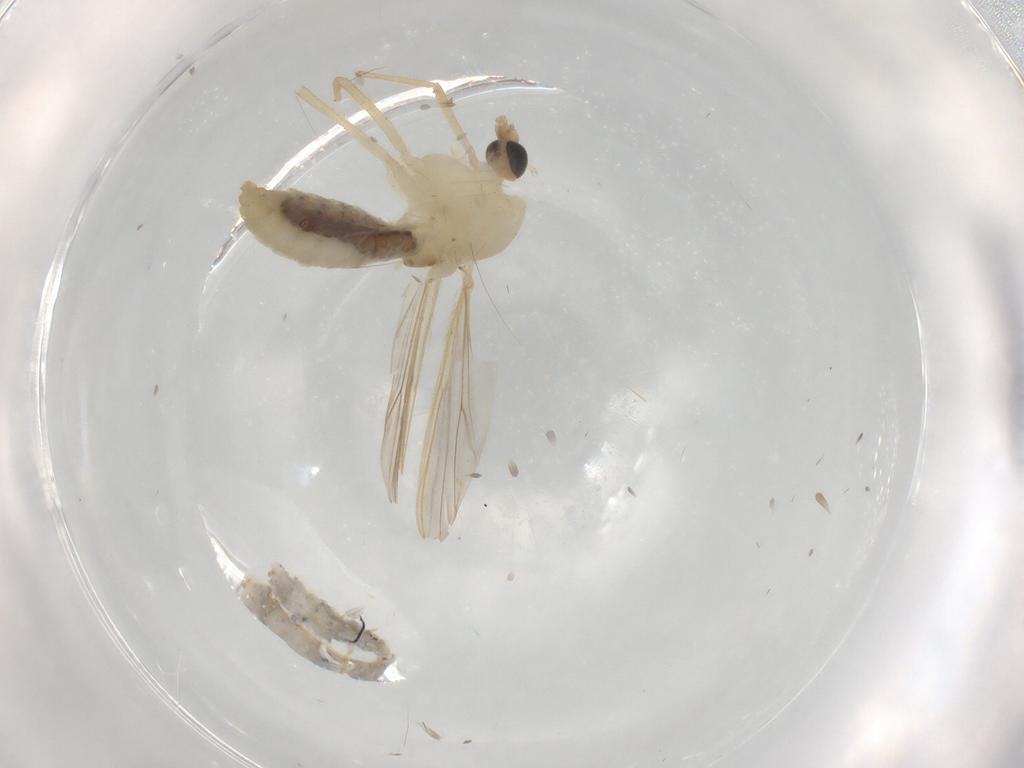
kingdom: Animalia
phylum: Arthropoda
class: Insecta
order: Diptera
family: Chironomidae
